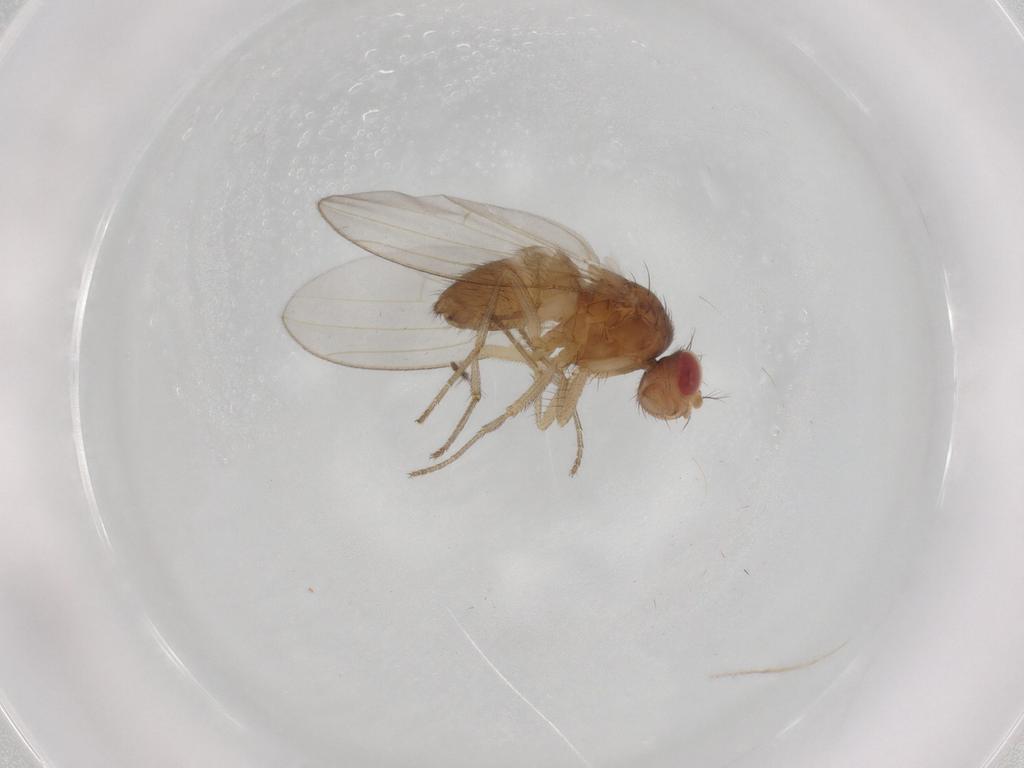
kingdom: Animalia
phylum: Arthropoda
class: Insecta
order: Diptera
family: Drosophilidae
